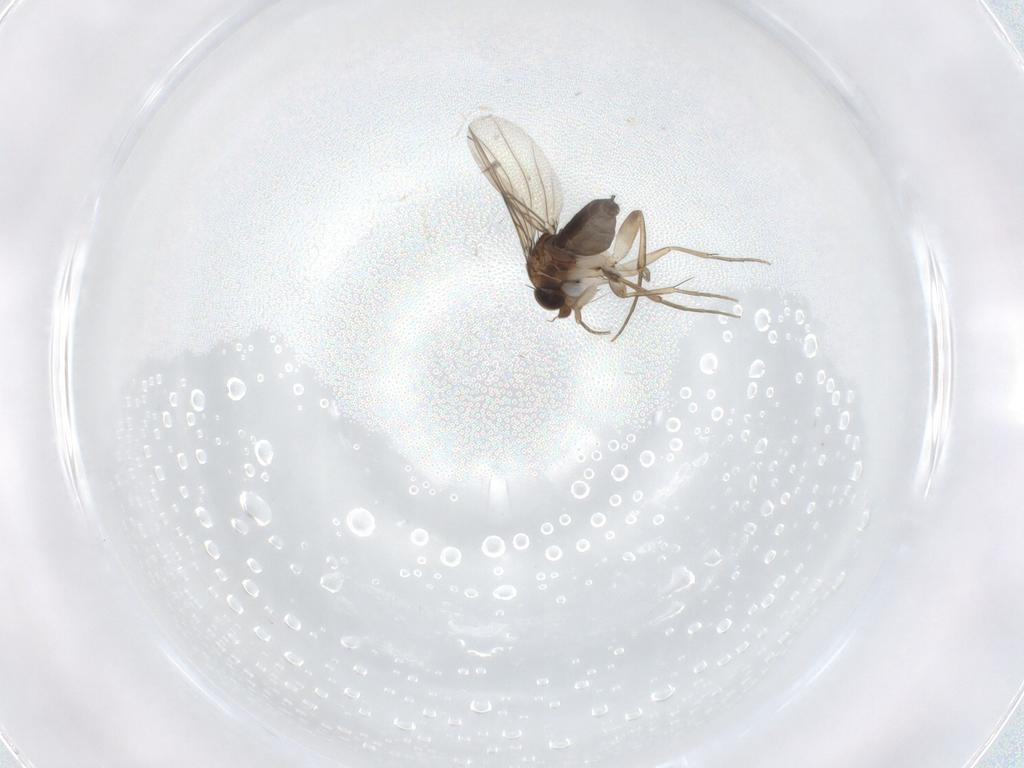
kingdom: Animalia
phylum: Arthropoda
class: Insecta
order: Diptera
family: Phoridae
